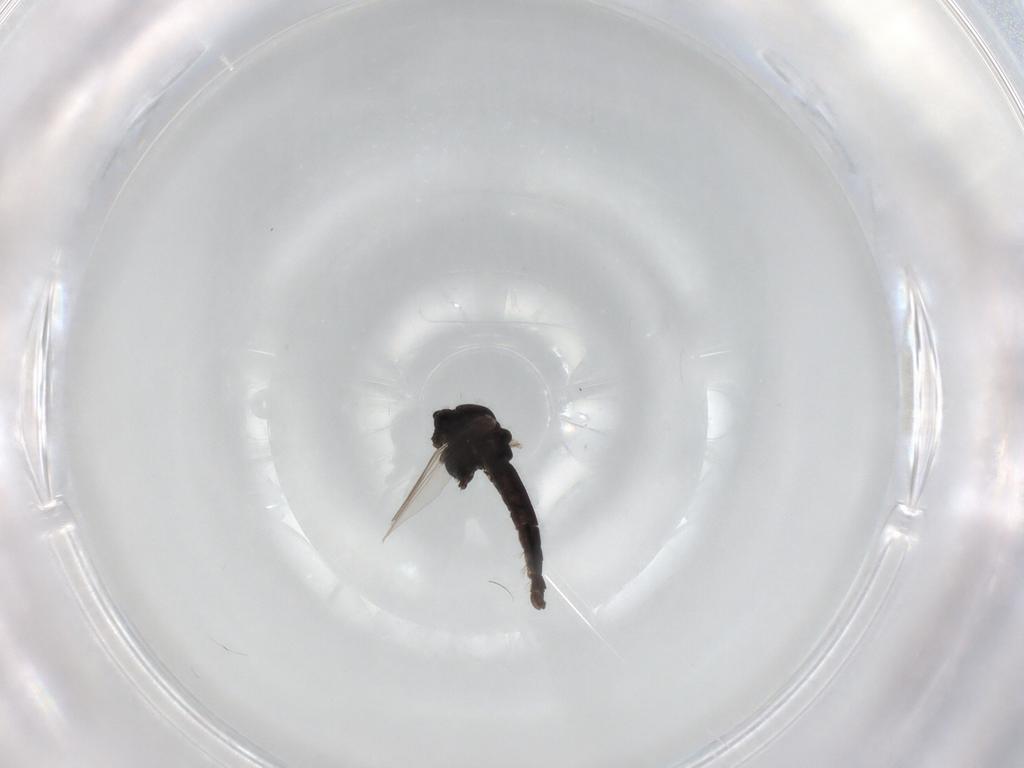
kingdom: Animalia
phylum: Arthropoda
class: Insecta
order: Diptera
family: Chironomidae
